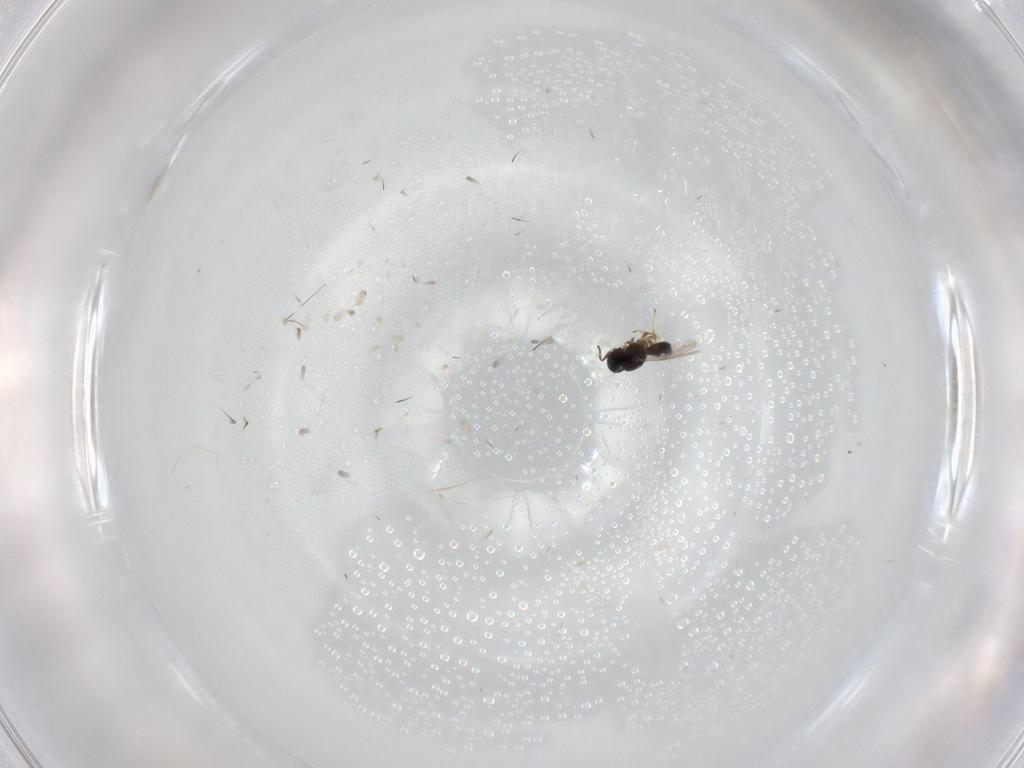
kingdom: Animalia
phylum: Arthropoda
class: Insecta
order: Hymenoptera
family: Scelionidae
